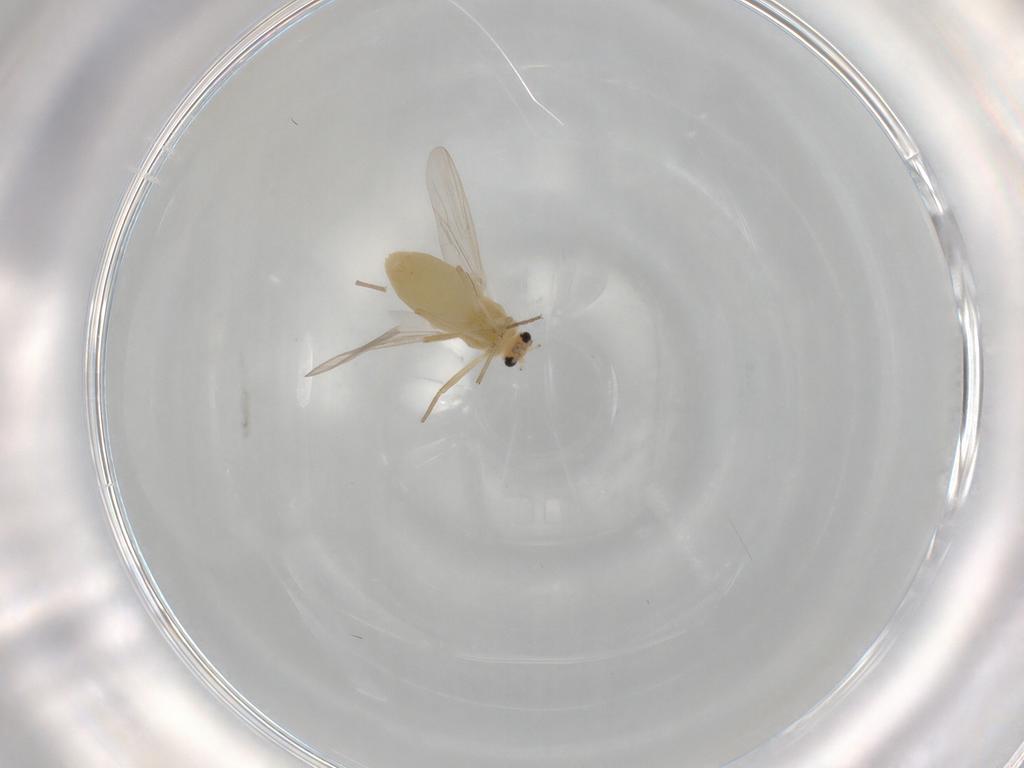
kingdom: Animalia
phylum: Arthropoda
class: Insecta
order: Diptera
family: Chironomidae
